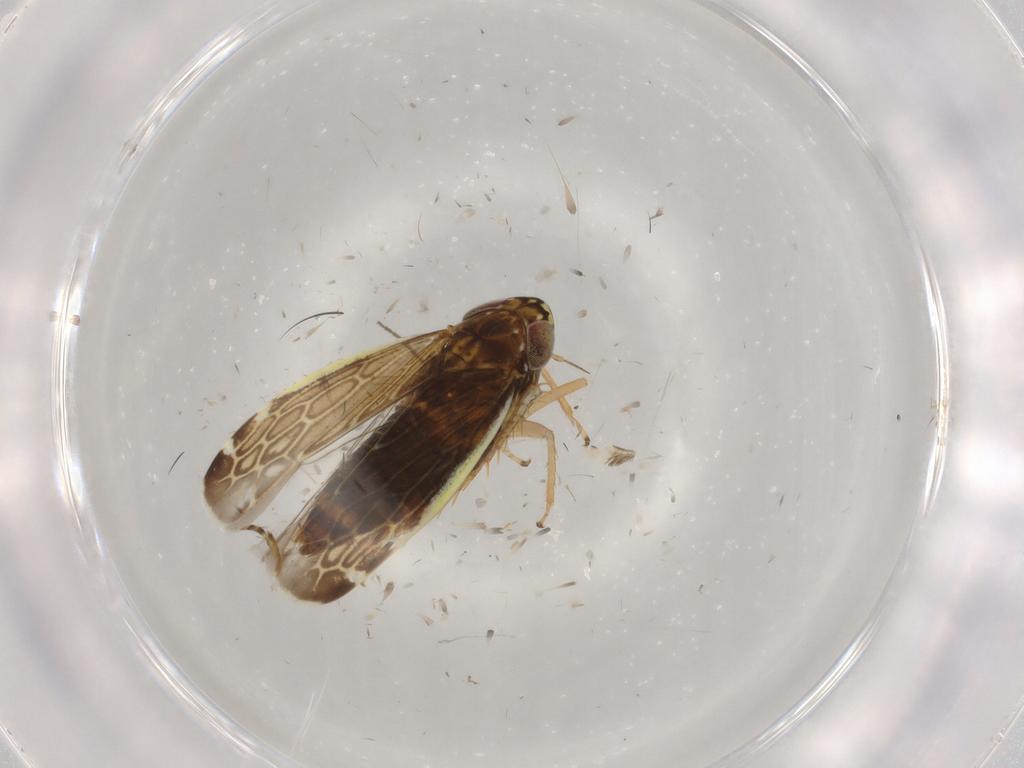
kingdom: Animalia
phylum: Arthropoda
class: Insecta
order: Hemiptera
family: Cicadellidae
